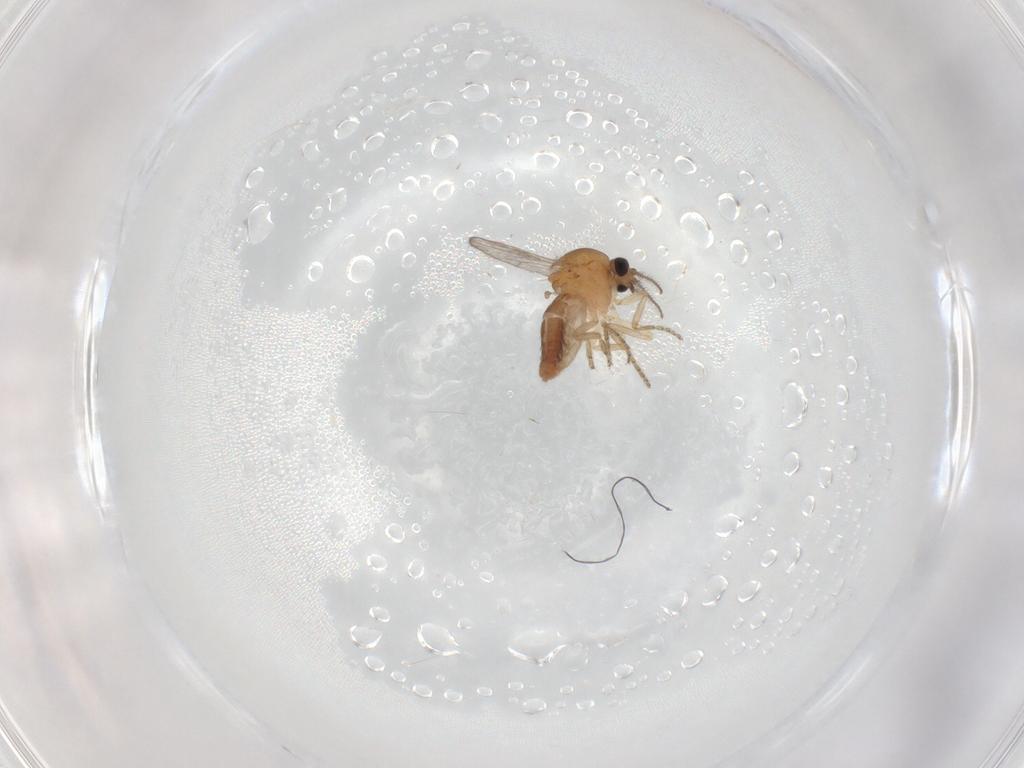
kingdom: Animalia
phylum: Arthropoda
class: Insecta
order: Diptera
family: Ceratopogonidae
